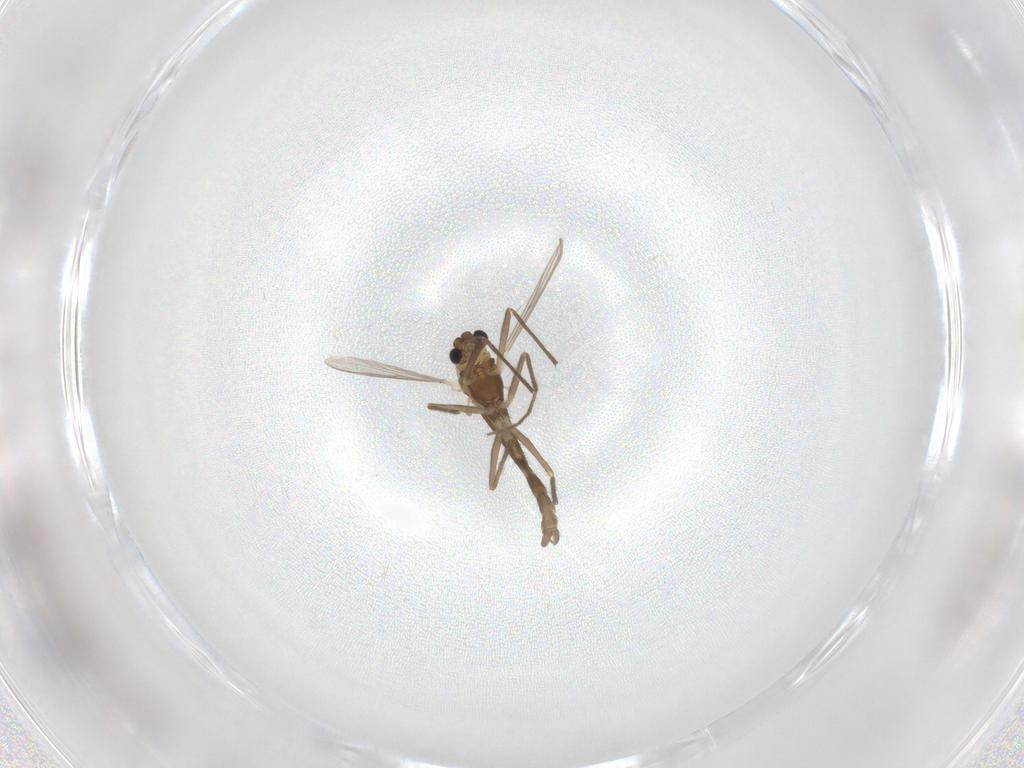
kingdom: Animalia
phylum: Arthropoda
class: Insecta
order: Diptera
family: Chironomidae
